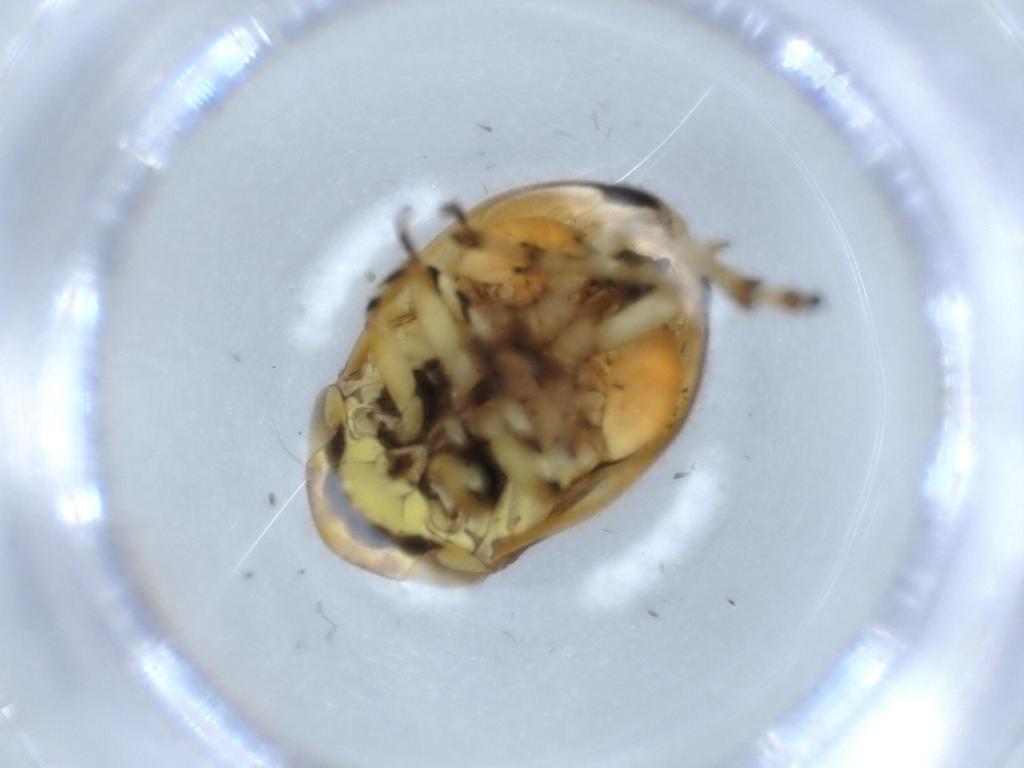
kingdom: Animalia
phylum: Arthropoda
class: Insecta
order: Hemiptera
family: Clastopteridae
